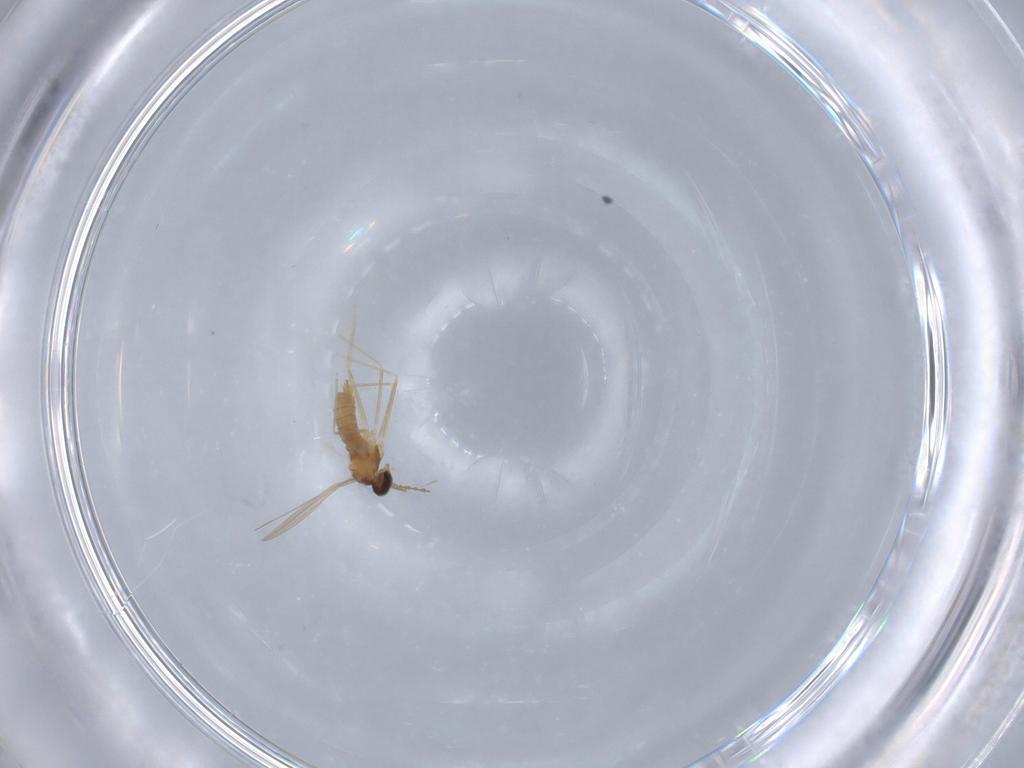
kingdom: Animalia
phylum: Arthropoda
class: Insecta
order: Diptera
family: Cecidomyiidae
